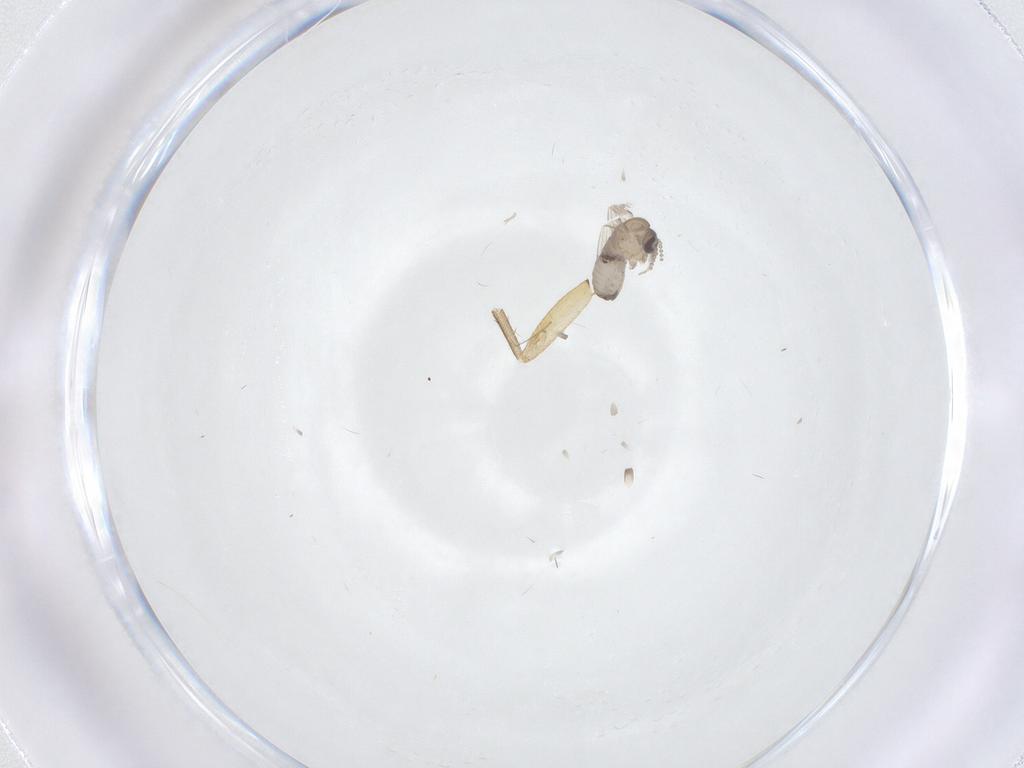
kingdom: Animalia
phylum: Arthropoda
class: Insecta
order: Diptera
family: Mycetophilidae
